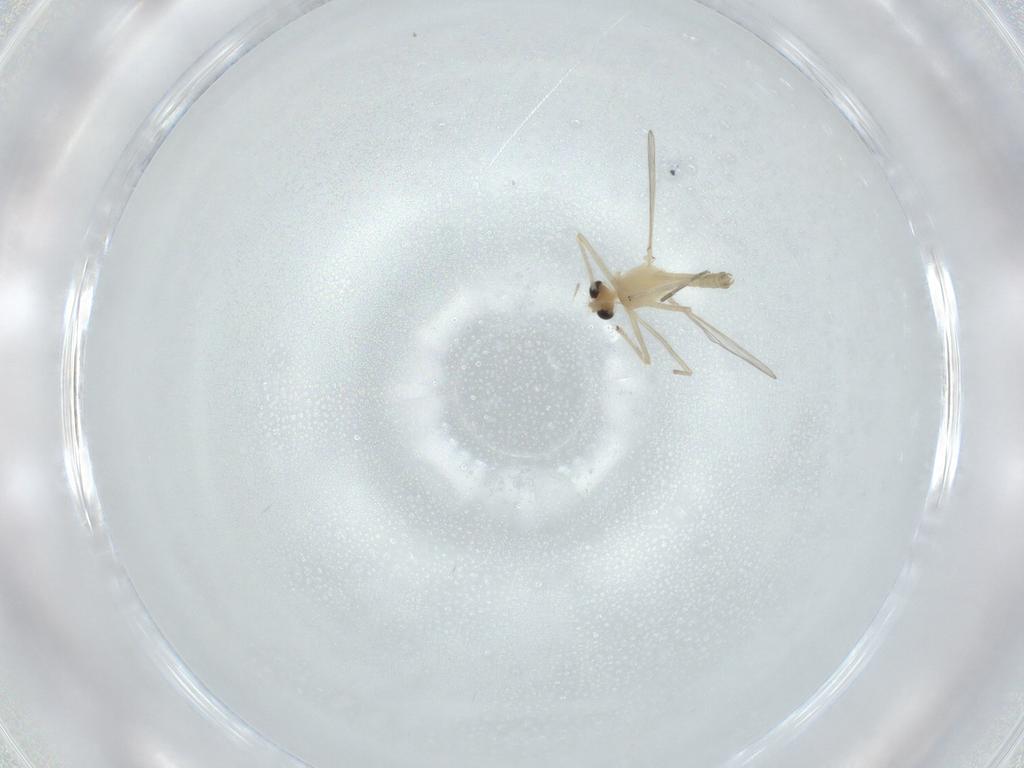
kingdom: Animalia
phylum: Arthropoda
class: Insecta
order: Diptera
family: Chironomidae
